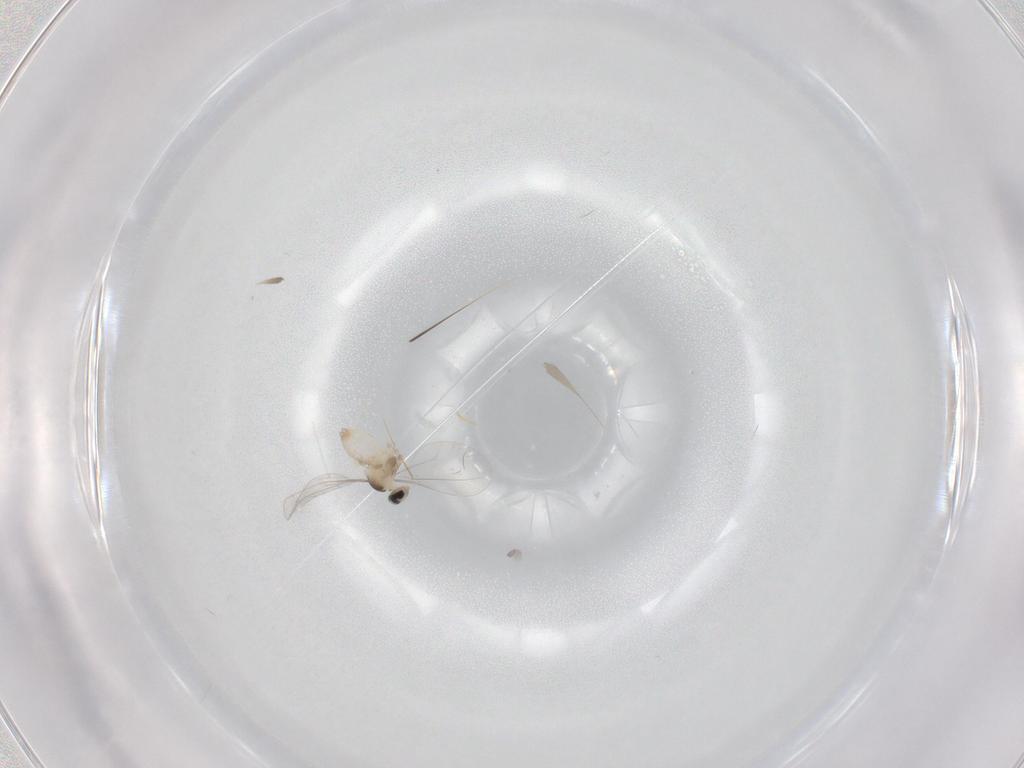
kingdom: Animalia
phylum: Arthropoda
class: Insecta
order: Diptera
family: Cecidomyiidae
